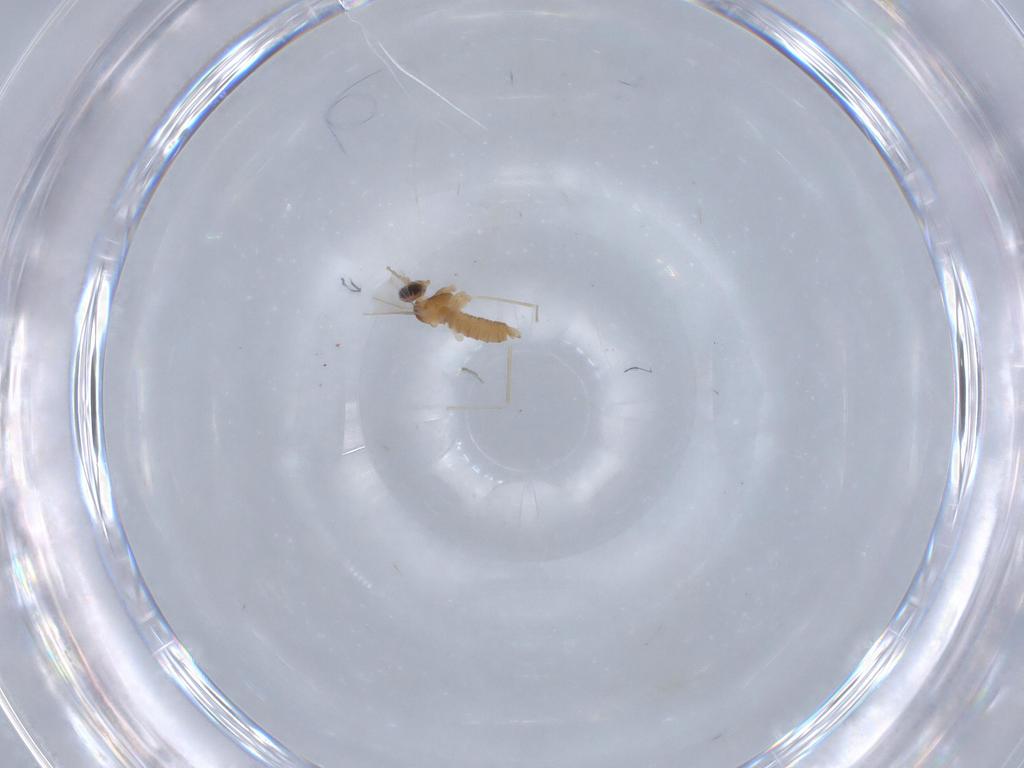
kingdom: Animalia
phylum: Arthropoda
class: Insecta
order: Diptera
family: Cecidomyiidae
